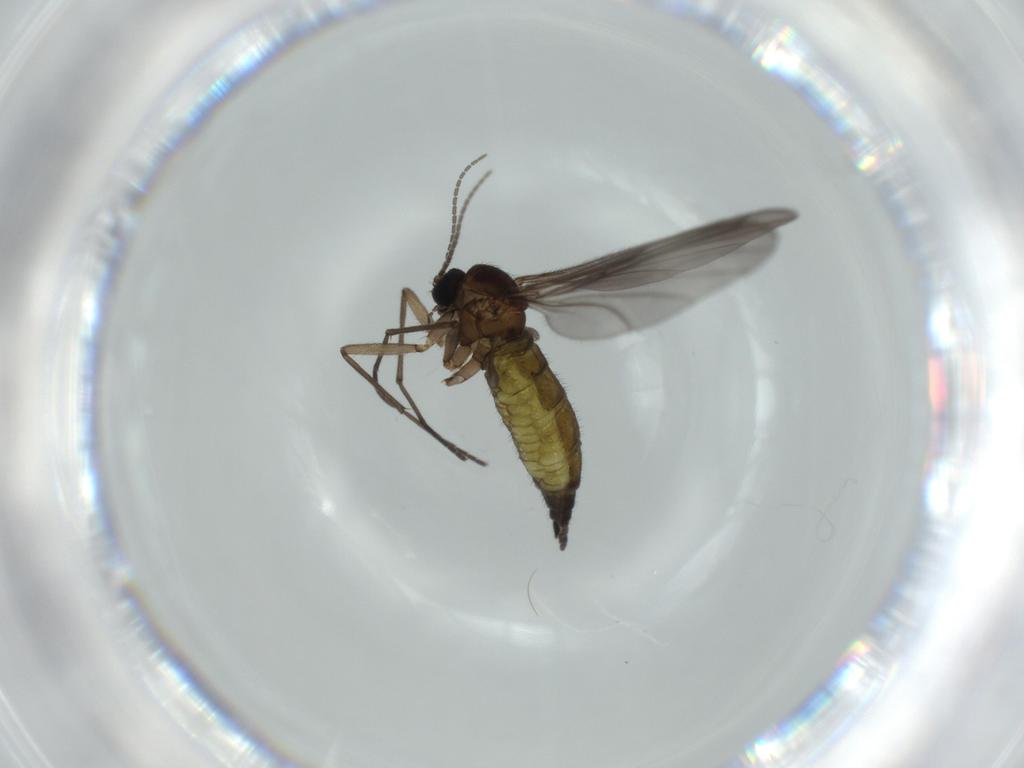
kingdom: Animalia
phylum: Arthropoda
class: Insecta
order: Diptera
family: Sciaridae
